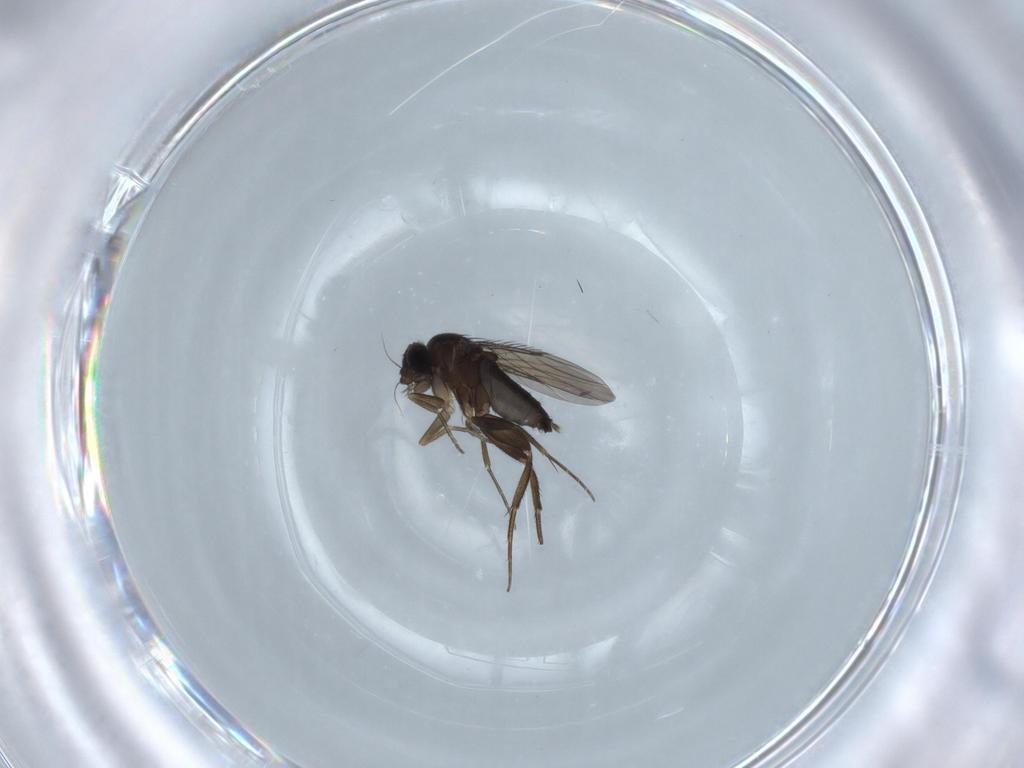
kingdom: Animalia
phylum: Arthropoda
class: Insecta
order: Diptera
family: Phoridae
